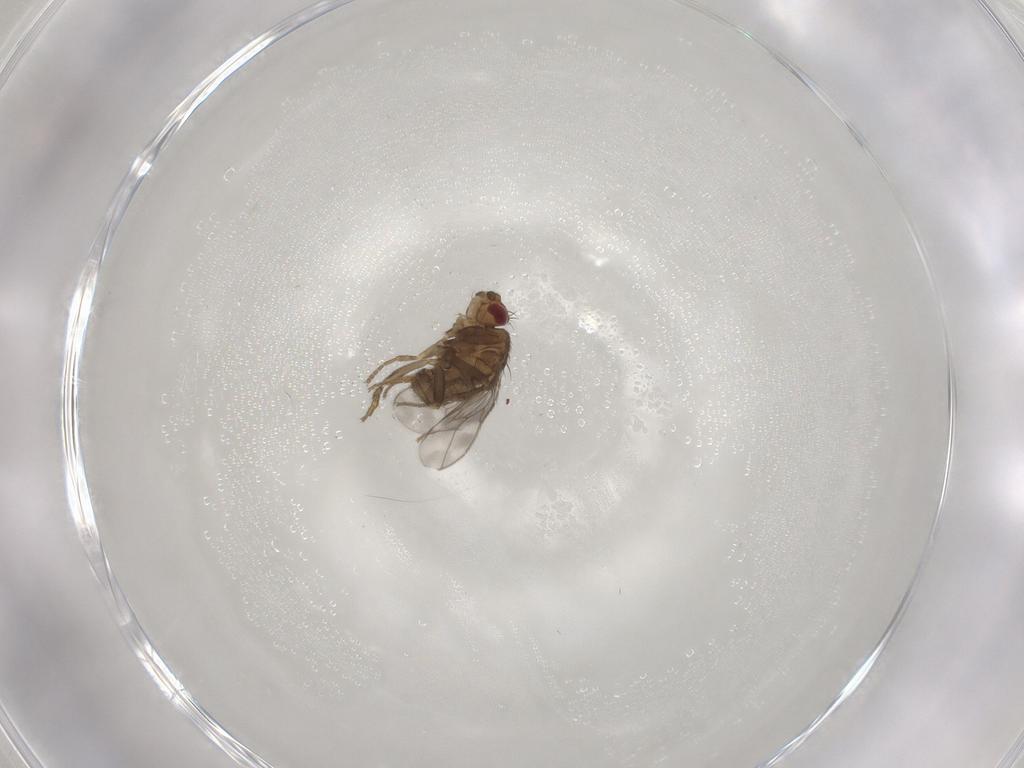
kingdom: Animalia
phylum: Arthropoda
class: Insecta
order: Diptera
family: Sphaeroceridae
